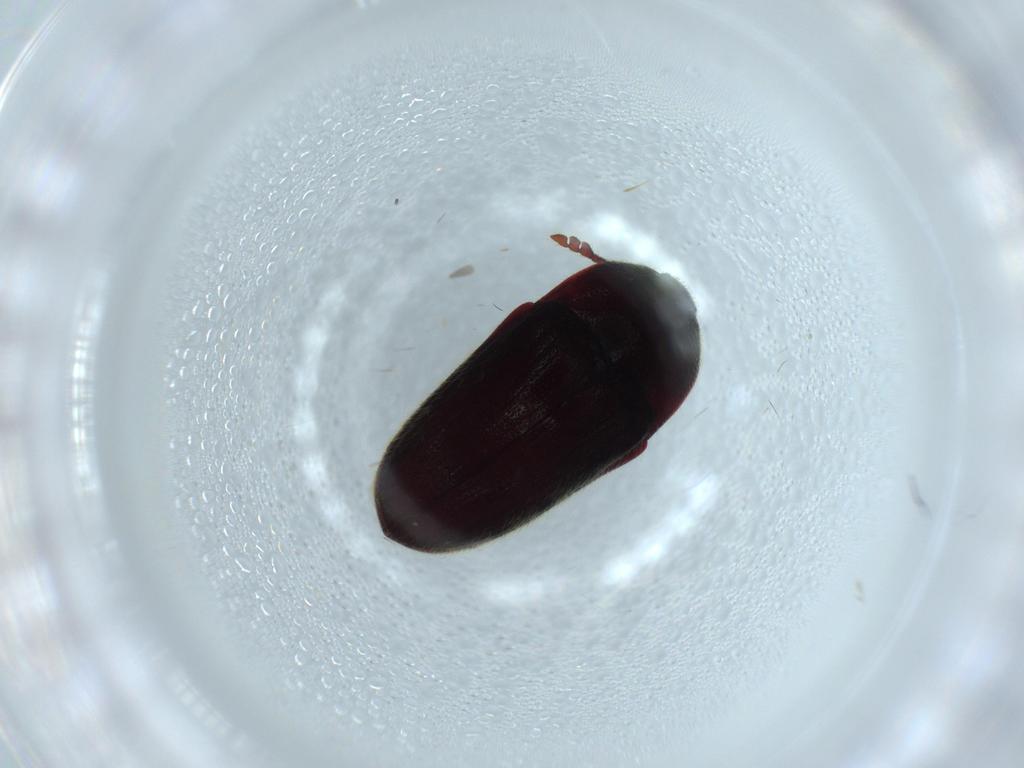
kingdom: Animalia
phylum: Arthropoda
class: Insecta
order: Coleoptera
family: Throscidae
